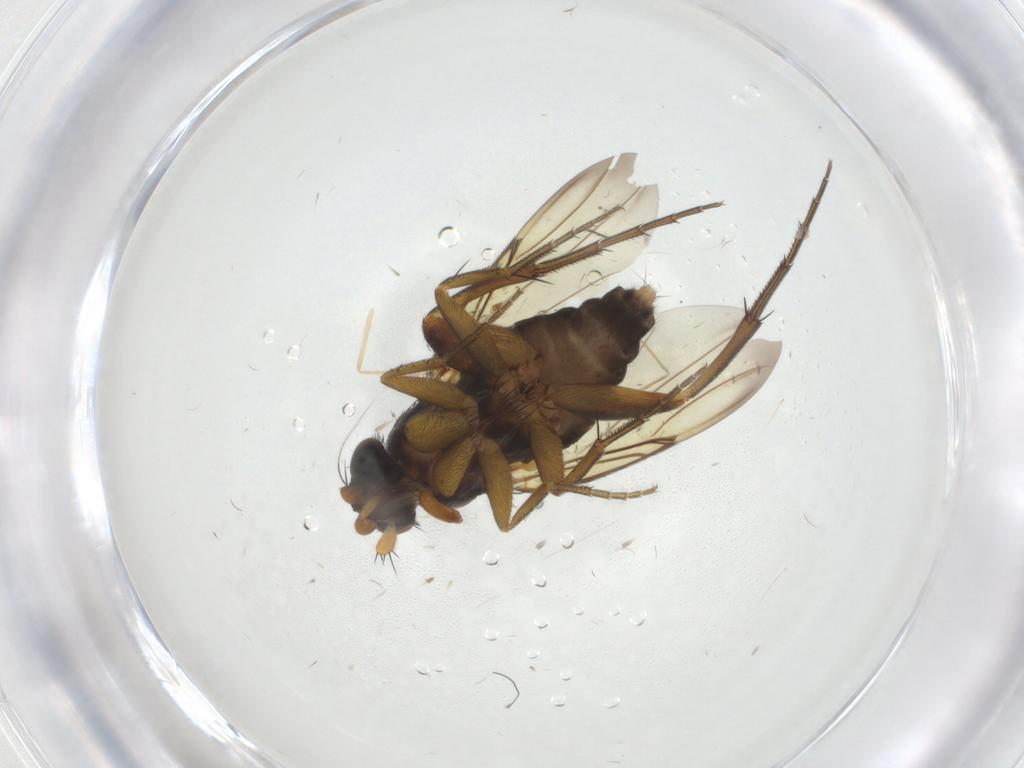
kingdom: Animalia
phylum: Arthropoda
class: Insecta
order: Diptera
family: Phoridae
